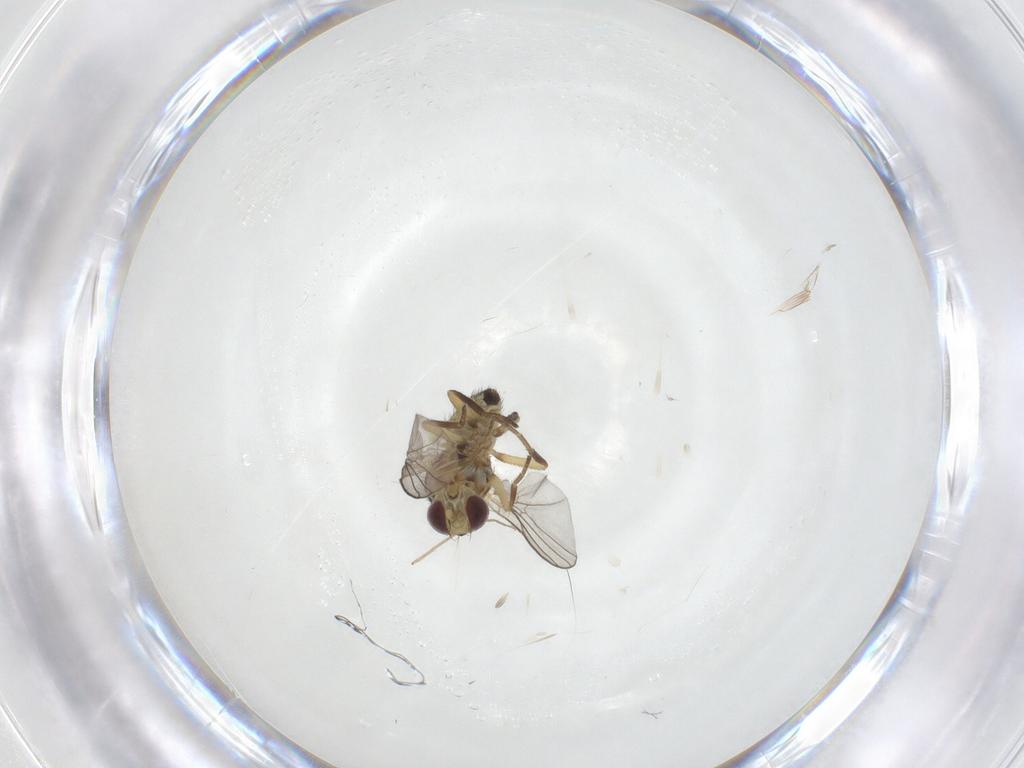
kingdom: Animalia
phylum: Arthropoda
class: Insecta
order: Diptera
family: Agromyzidae
